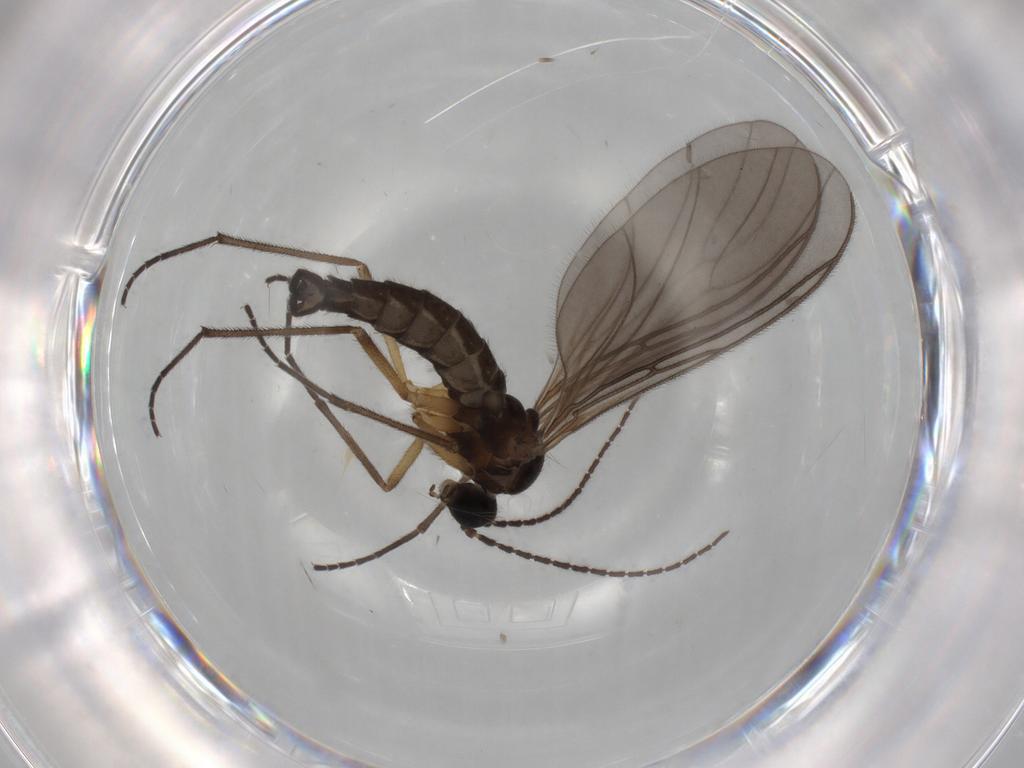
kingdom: Animalia
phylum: Arthropoda
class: Insecta
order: Diptera
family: Sciaridae
